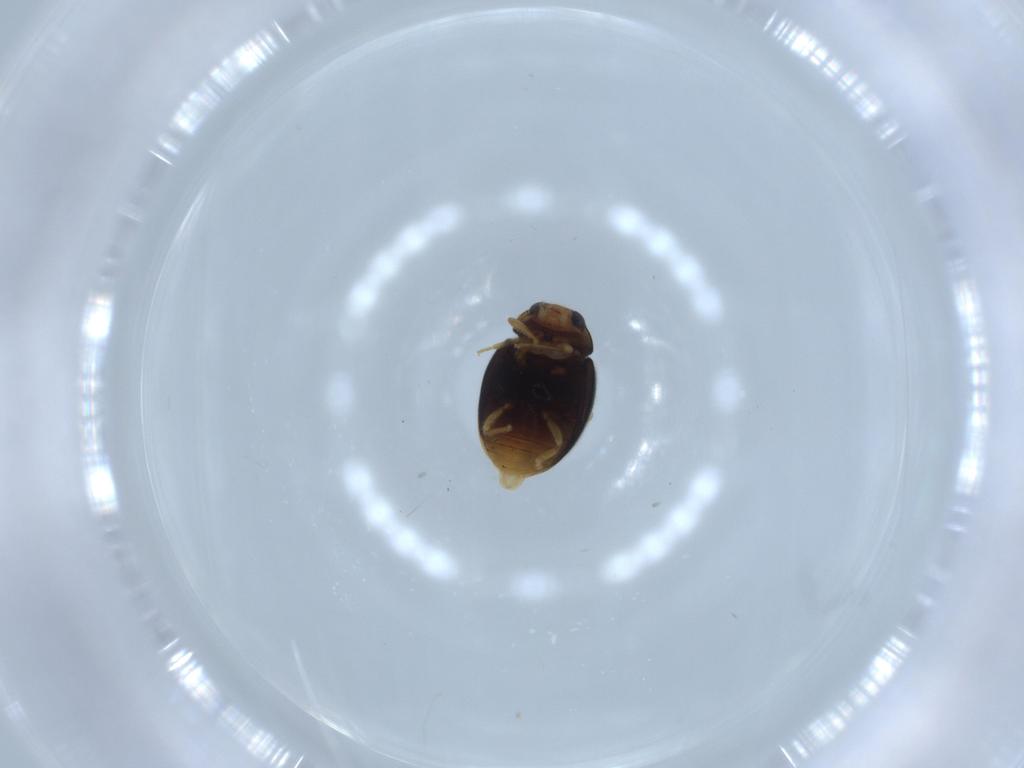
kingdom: Animalia
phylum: Arthropoda
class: Insecta
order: Coleoptera
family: Coccinellidae
